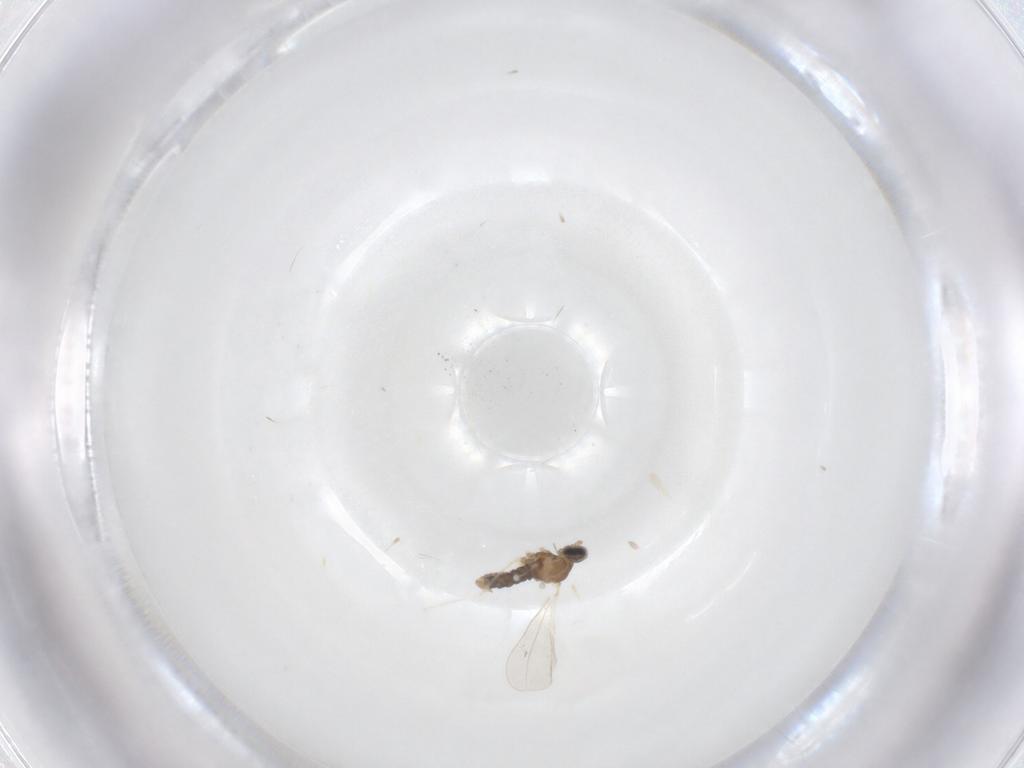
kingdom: Animalia
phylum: Arthropoda
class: Insecta
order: Diptera
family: Cecidomyiidae
